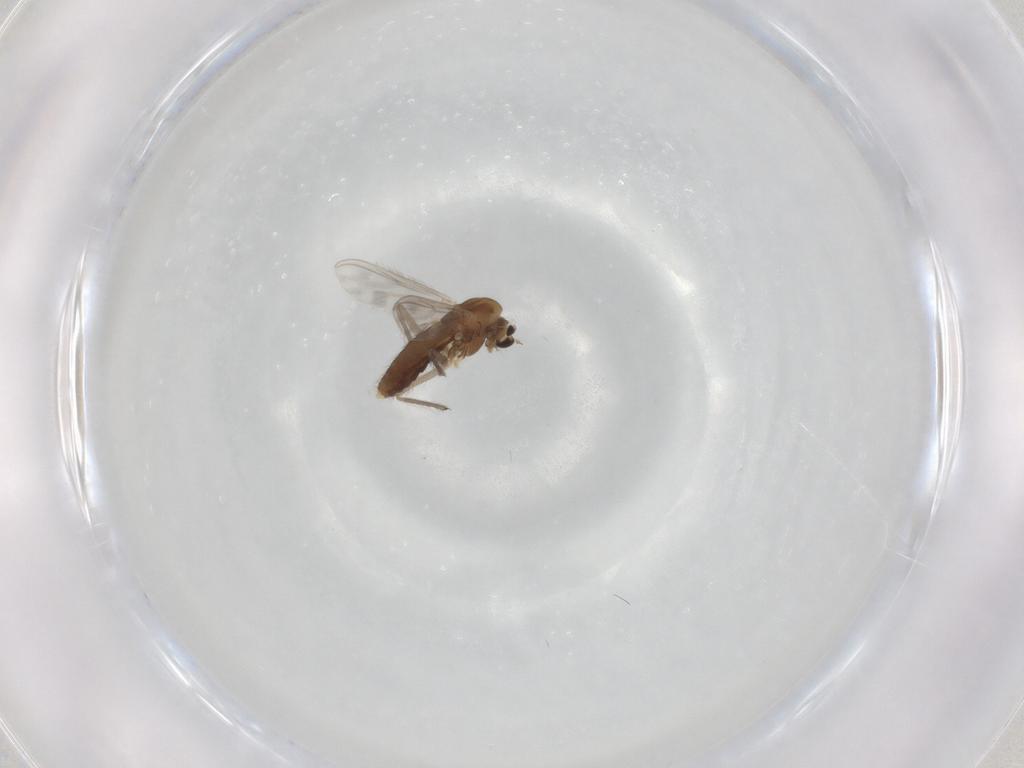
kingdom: Animalia
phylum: Arthropoda
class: Insecta
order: Diptera
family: Chironomidae
